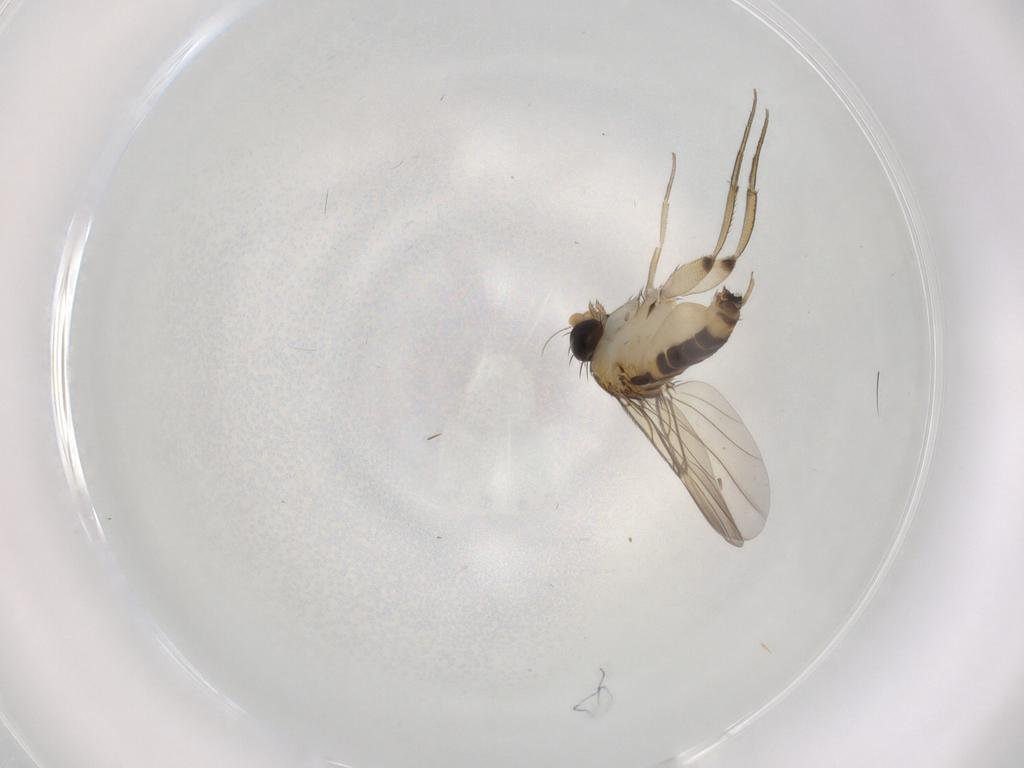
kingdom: Animalia
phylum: Arthropoda
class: Insecta
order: Diptera
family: Phoridae
